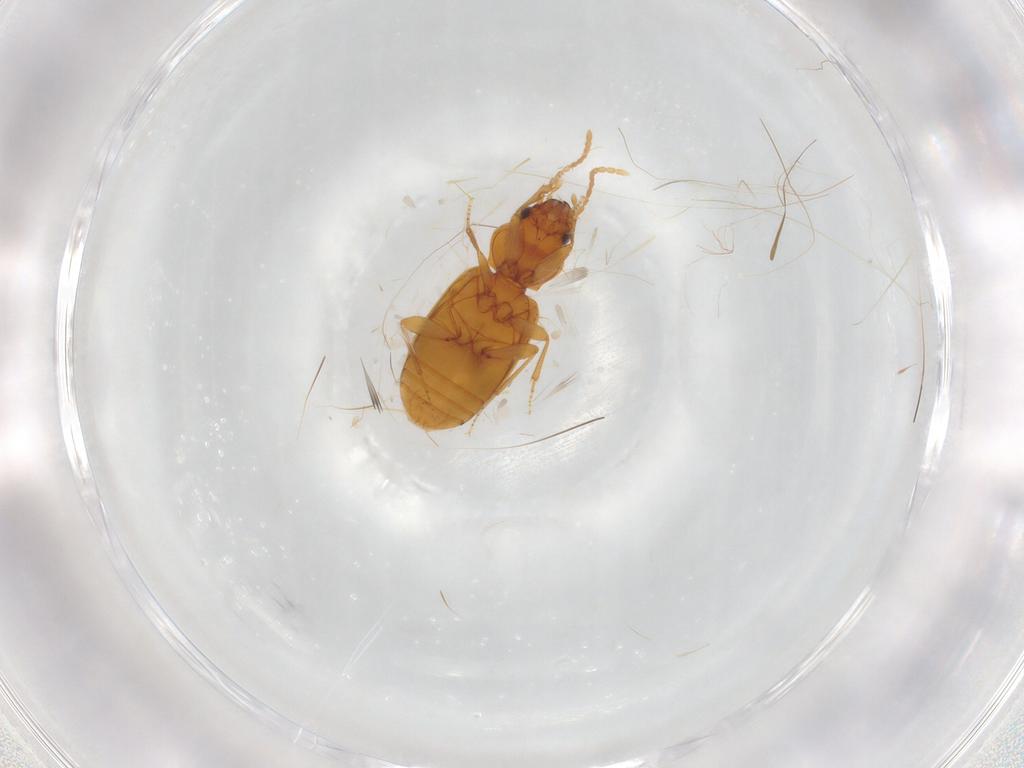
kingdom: Animalia
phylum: Arthropoda
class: Insecta
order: Coleoptera
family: Carabidae
